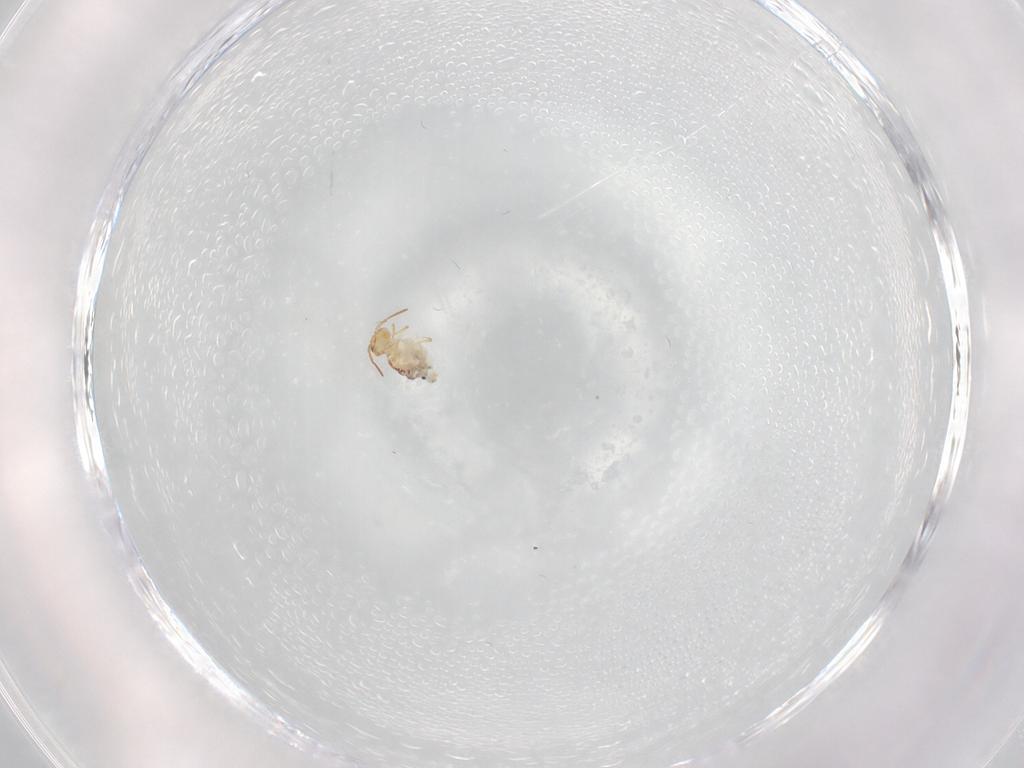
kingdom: Animalia
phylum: Arthropoda
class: Collembola
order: Symphypleona
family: Bourletiellidae
